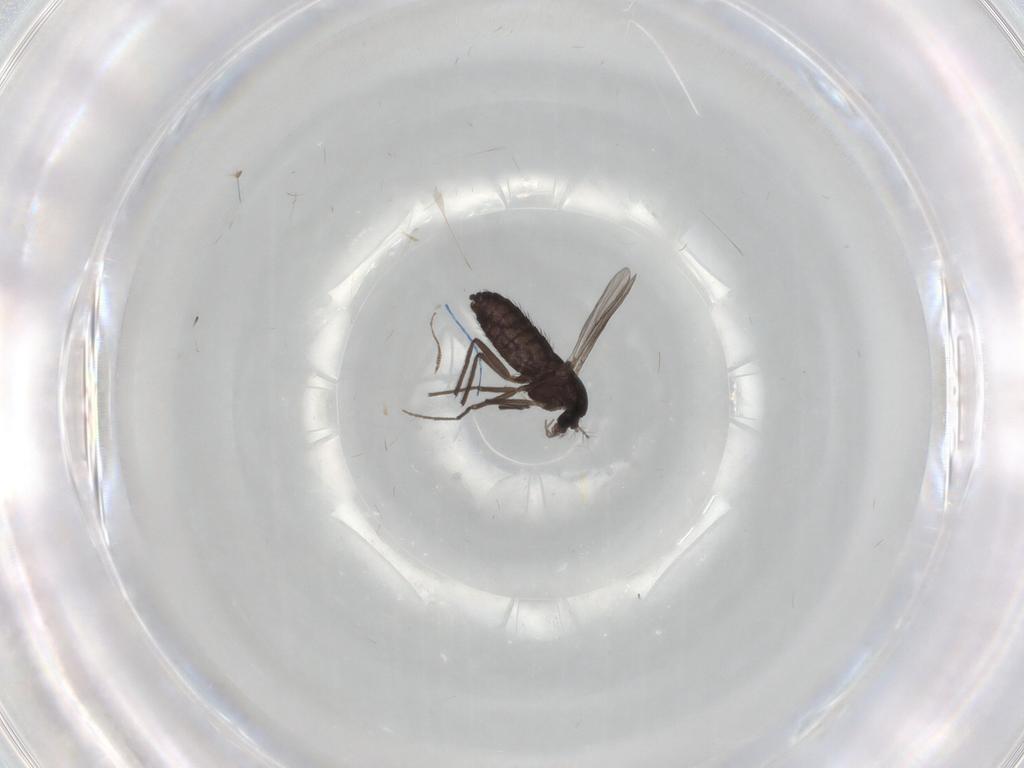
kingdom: Animalia
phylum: Arthropoda
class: Insecta
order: Diptera
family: Chironomidae
